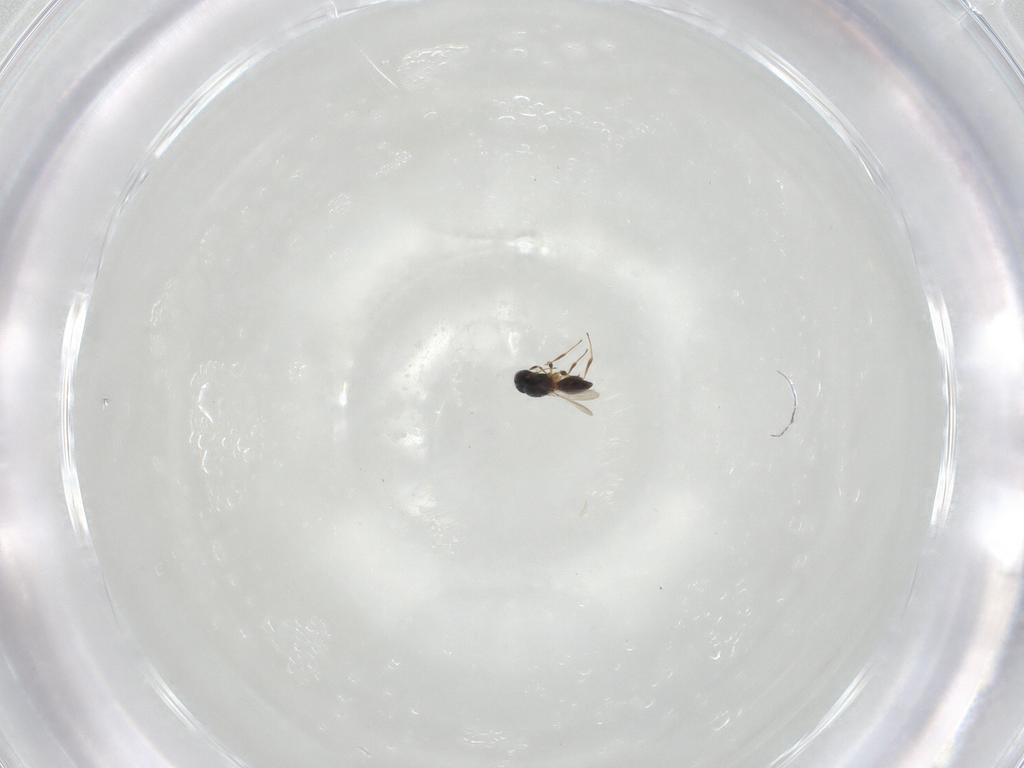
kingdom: Animalia
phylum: Arthropoda
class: Insecta
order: Hymenoptera
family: Platygastridae
